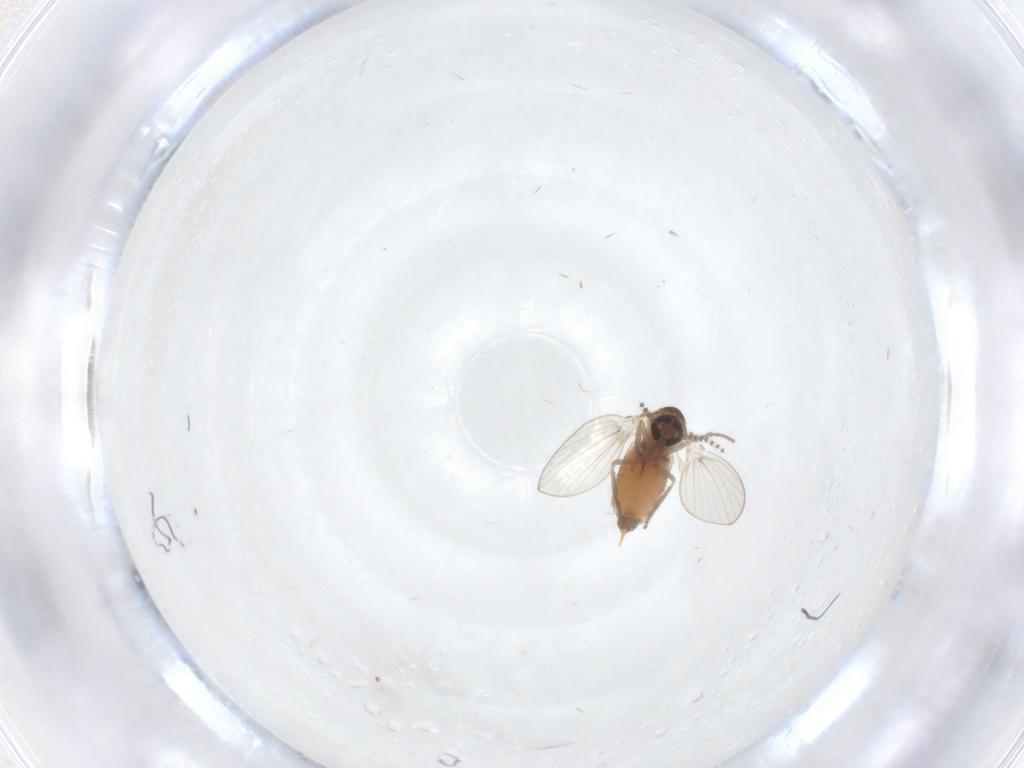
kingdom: Animalia
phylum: Arthropoda
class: Insecta
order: Diptera
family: Psychodidae
